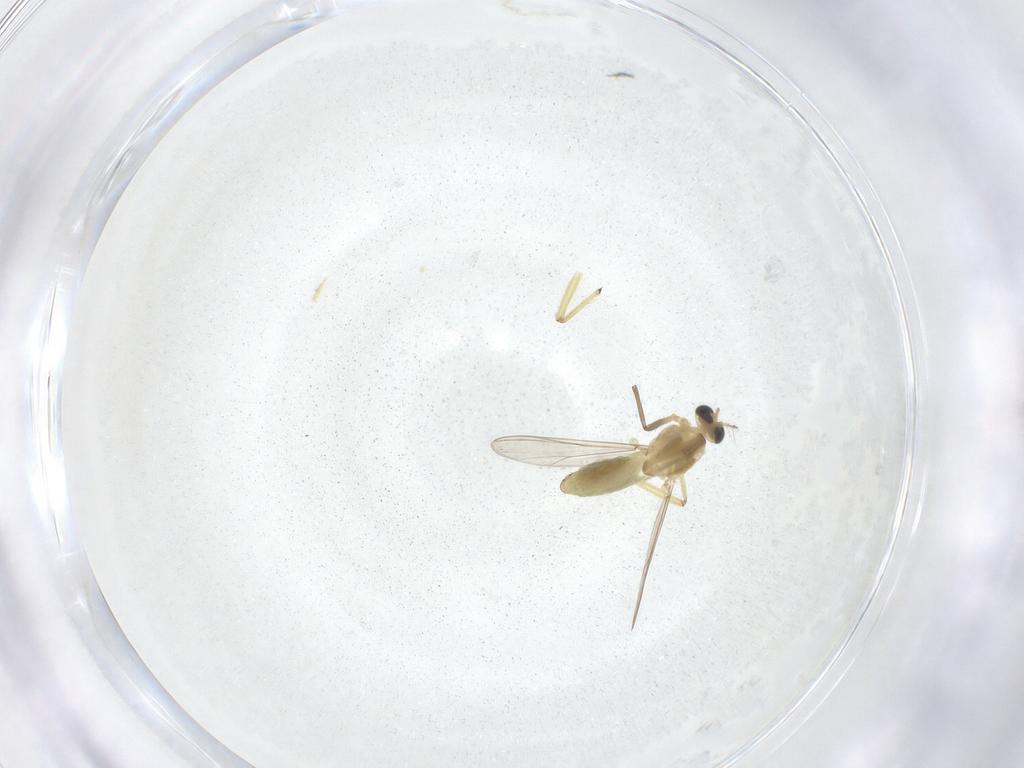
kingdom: Animalia
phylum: Arthropoda
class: Insecta
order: Diptera
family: Chironomidae
